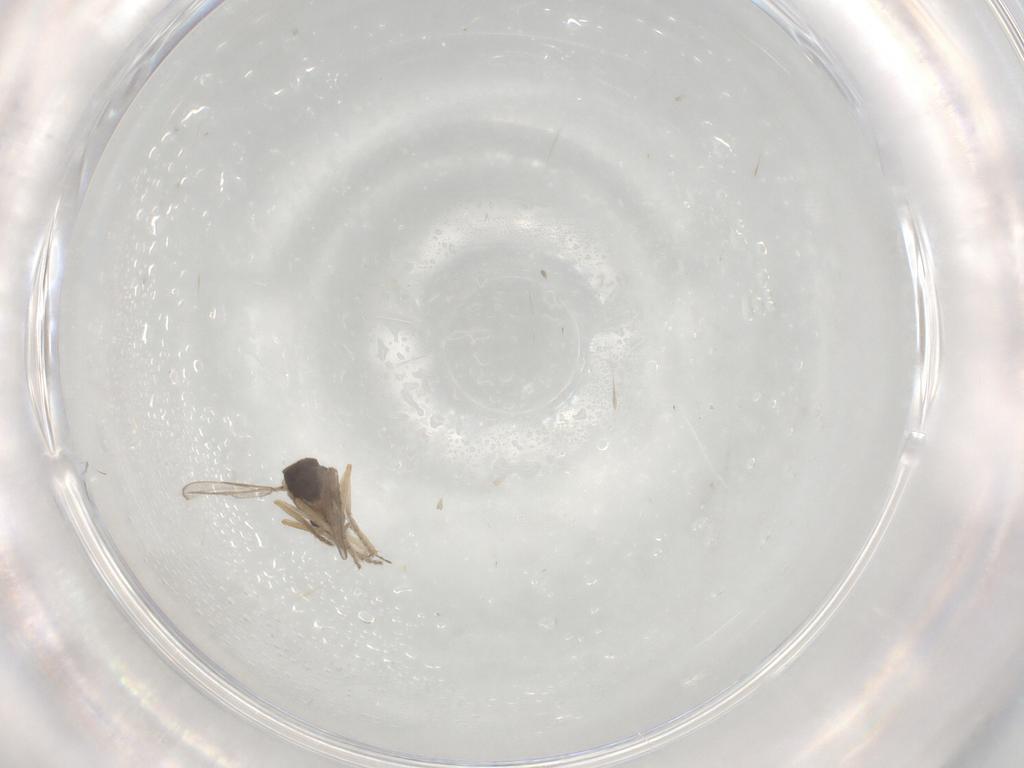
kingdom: Animalia
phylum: Arthropoda
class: Insecta
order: Diptera
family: Ceratopogonidae
